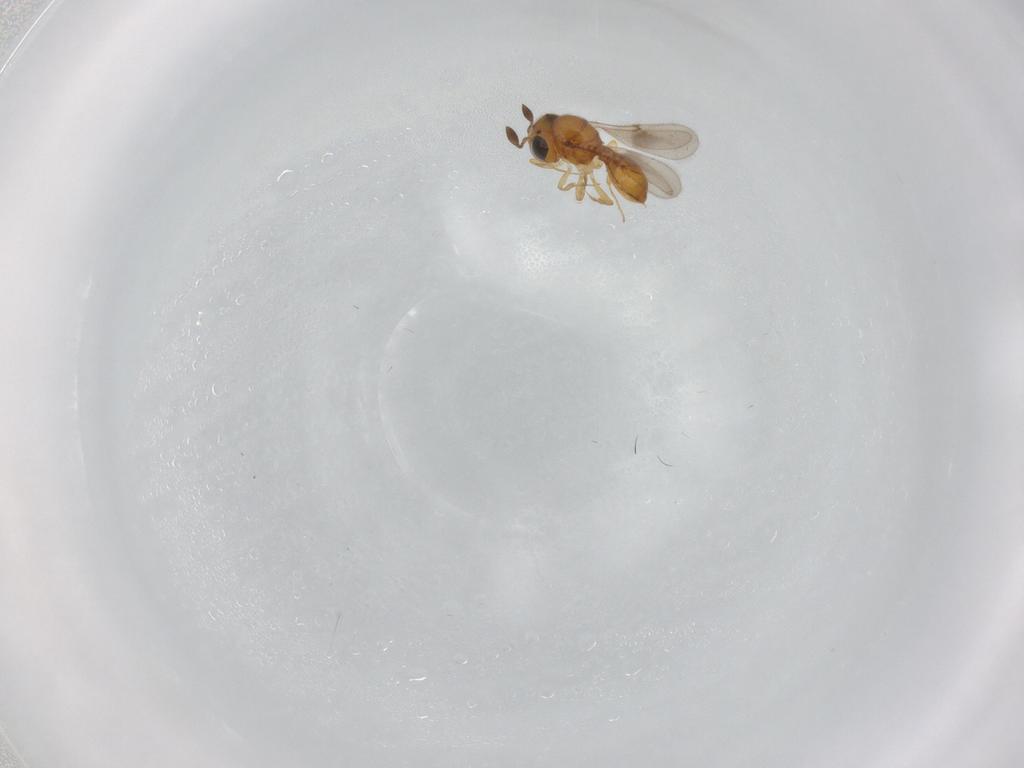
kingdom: Animalia
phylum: Arthropoda
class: Insecta
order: Hymenoptera
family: Scelionidae
